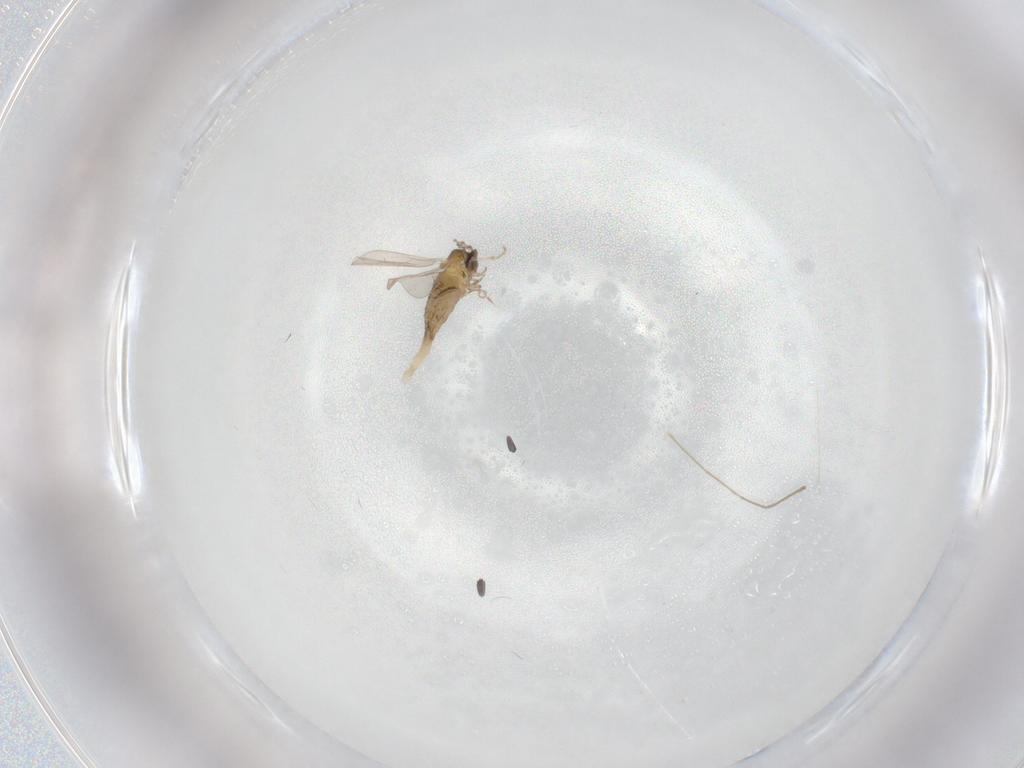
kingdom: Animalia
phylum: Arthropoda
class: Insecta
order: Diptera
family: Cecidomyiidae
